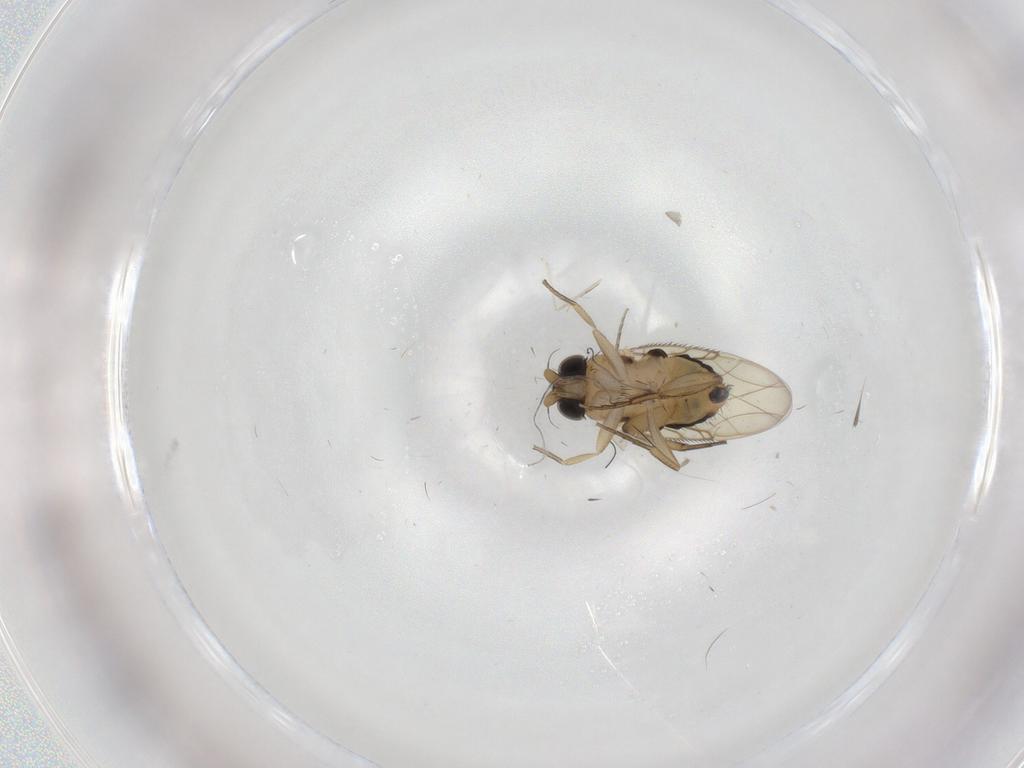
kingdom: Animalia
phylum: Arthropoda
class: Insecta
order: Diptera
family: Phoridae
